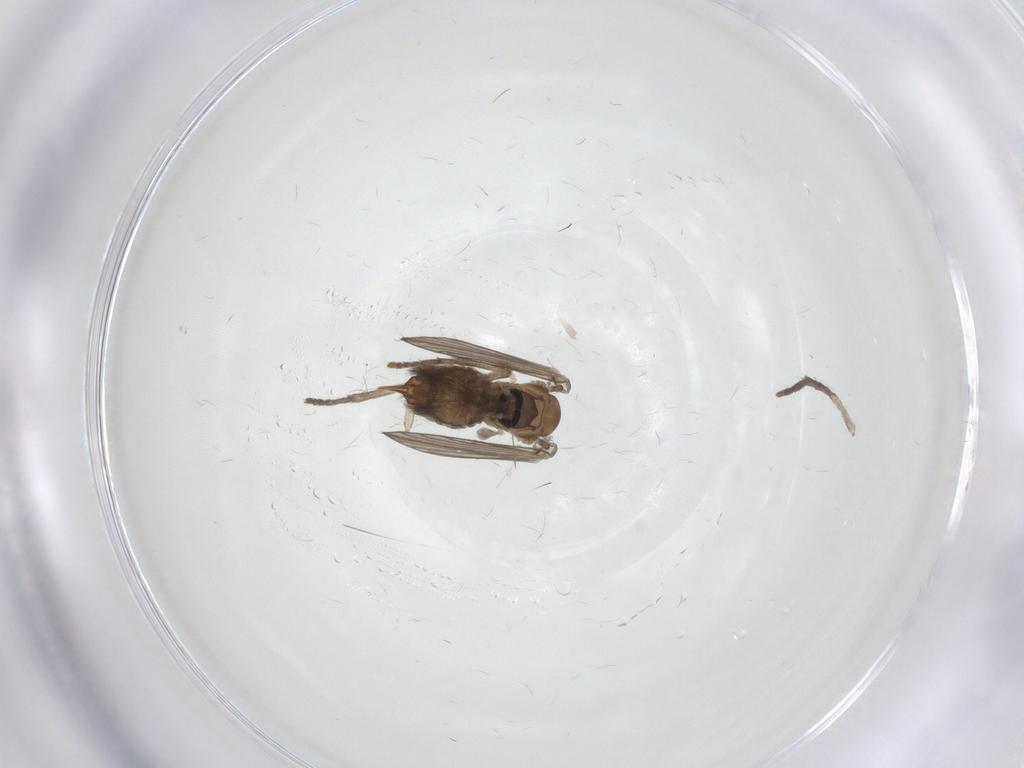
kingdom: Animalia
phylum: Arthropoda
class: Insecta
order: Diptera
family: Psychodidae
